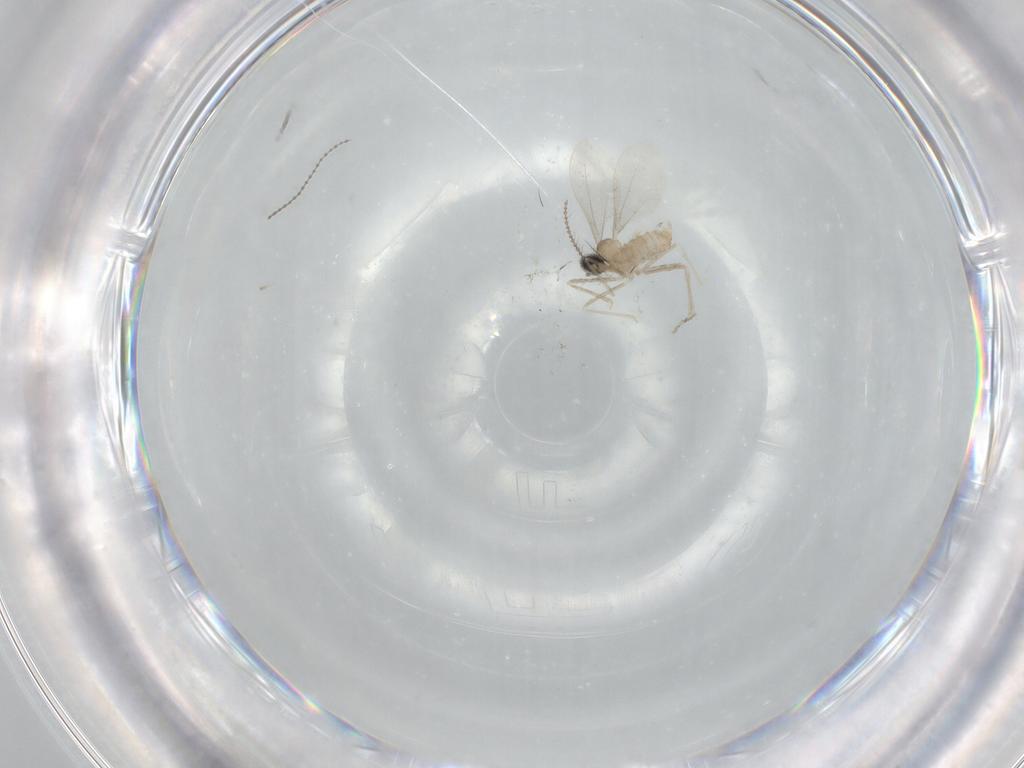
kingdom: Animalia
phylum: Arthropoda
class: Insecta
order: Diptera
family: Cecidomyiidae
